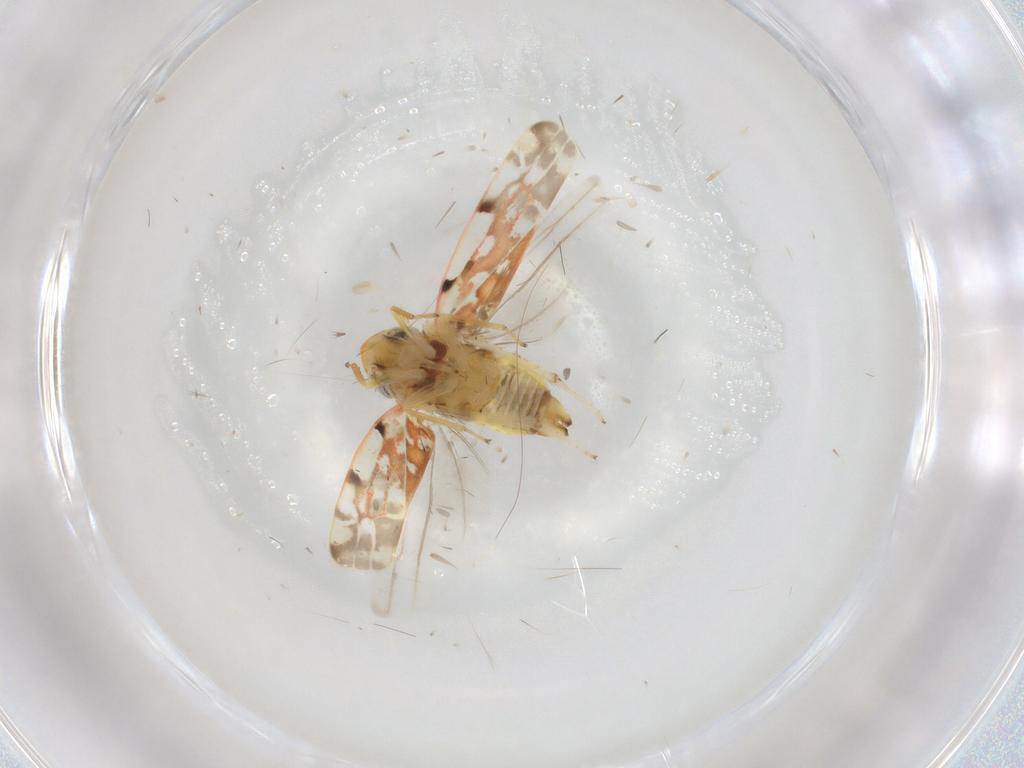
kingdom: Animalia
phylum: Arthropoda
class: Insecta
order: Hemiptera
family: Cicadellidae
